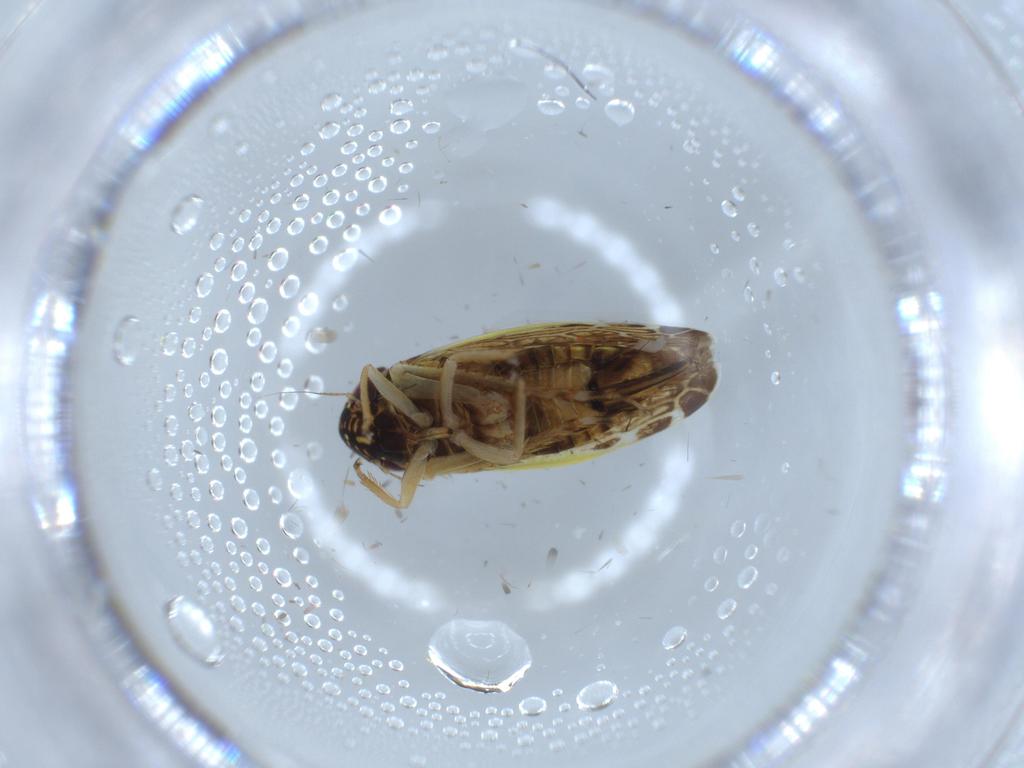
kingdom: Animalia
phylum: Arthropoda
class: Insecta
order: Hemiptera
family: Cicadellidae
